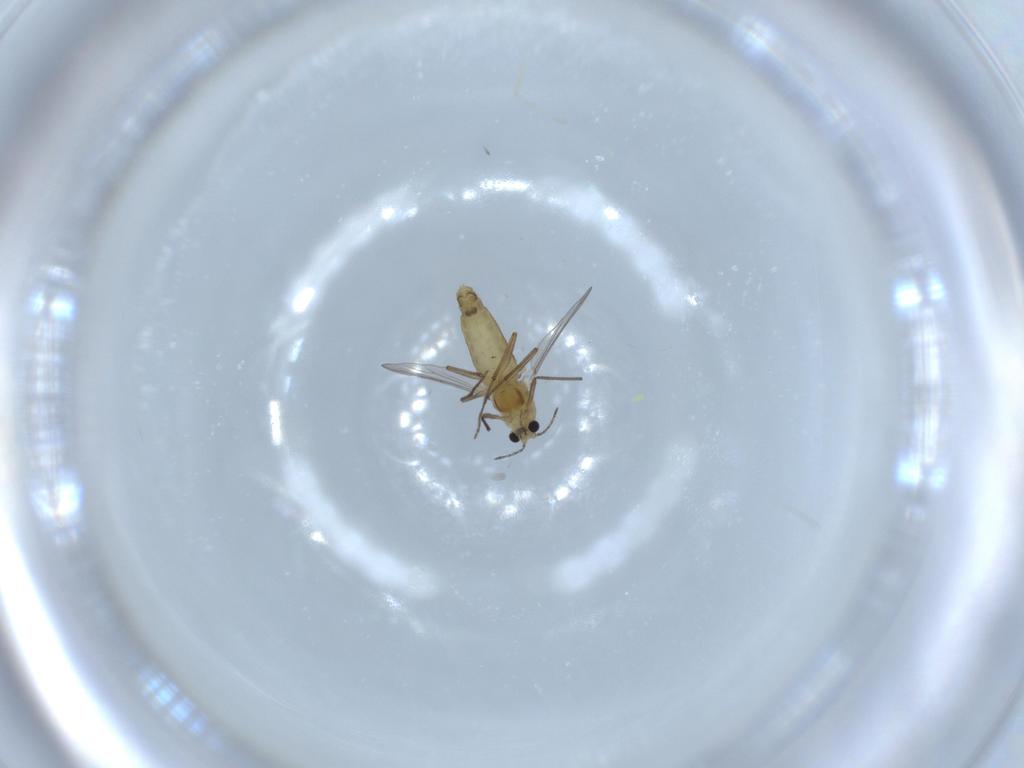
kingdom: Animalia
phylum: Arthropoda
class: Insecta
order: Diptera
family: Chironomidae
